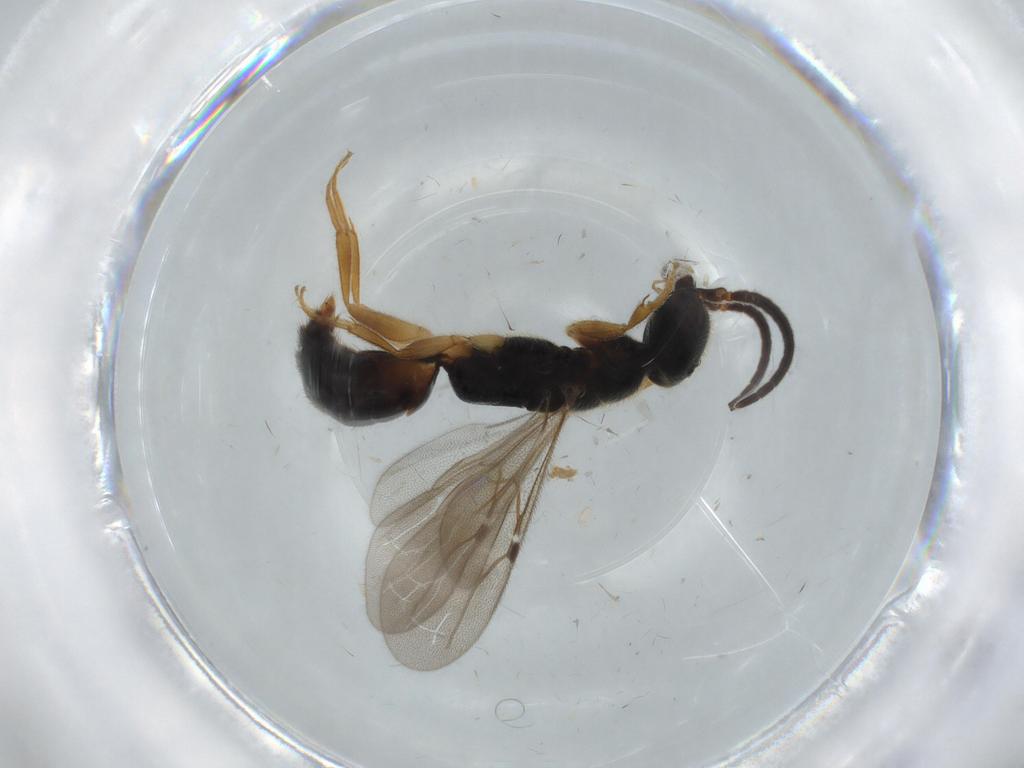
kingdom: Animalia
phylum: Arthropoda
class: Insecta
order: Hymenoptera
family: Bethylidae
